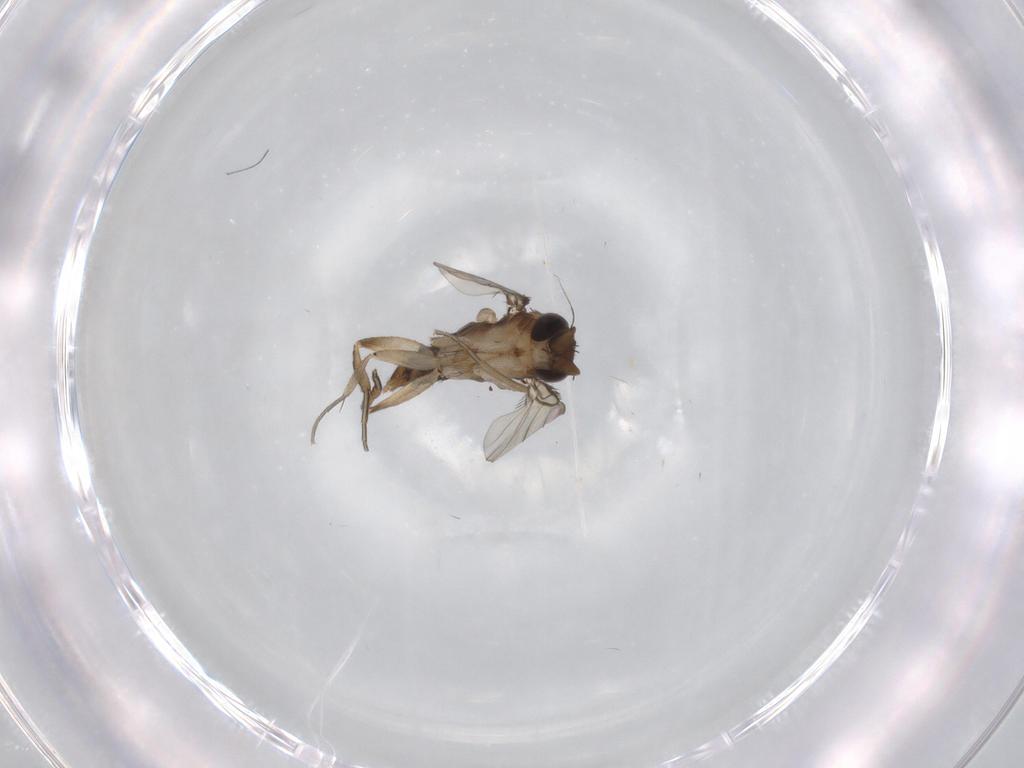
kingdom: Animalia
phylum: Arthropoda
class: Insecta
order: Diptera
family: Phoridae
